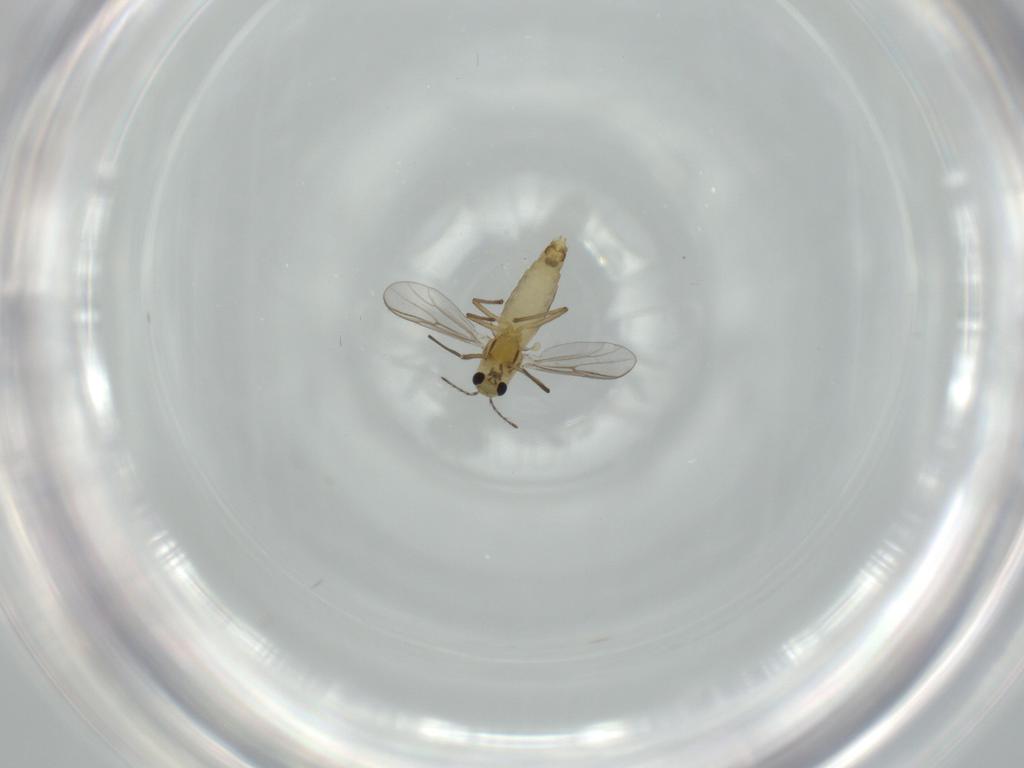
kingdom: Animalia
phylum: Arthropoda
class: Insecta
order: Diptera
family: Chironomidae
